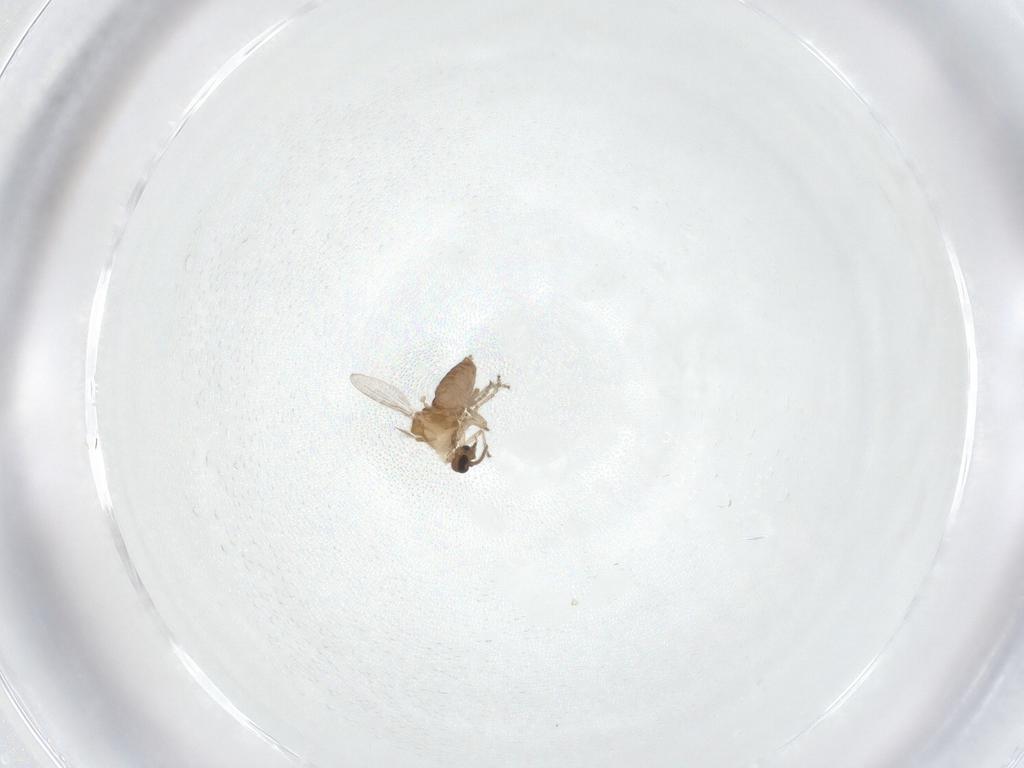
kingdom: Animalia
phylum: Arthropoda
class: Insecta
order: Diptera
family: Ceratopogonidae
